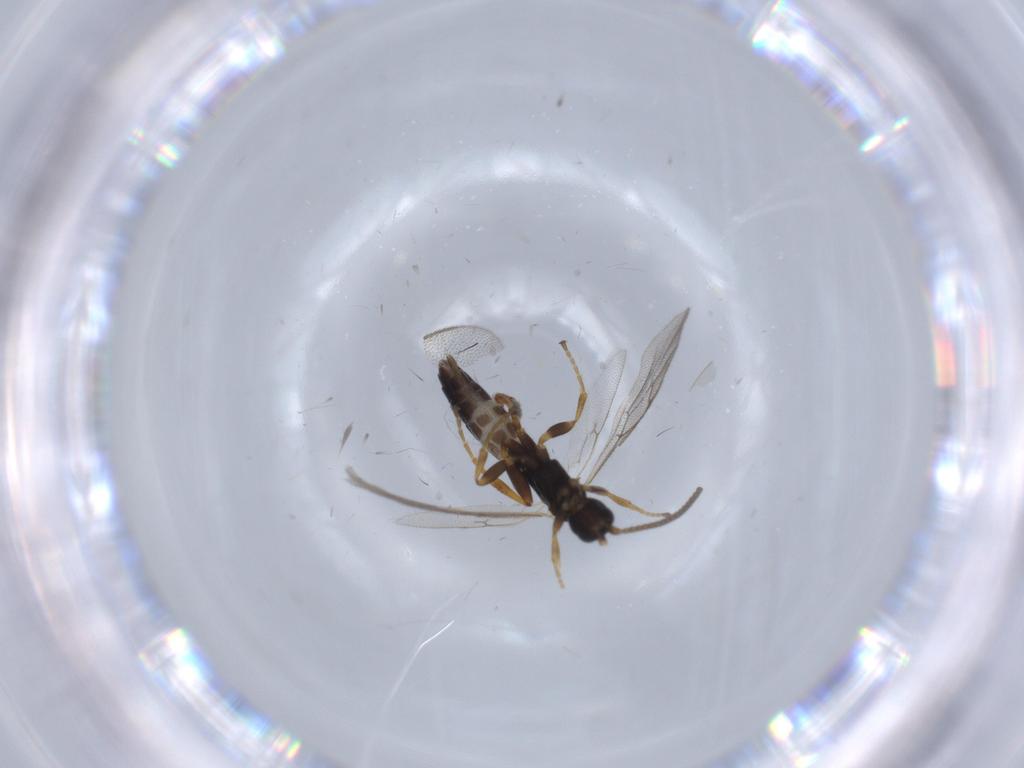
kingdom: Animalia
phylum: Arthropoda
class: Insecta
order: Hymenoptera
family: Ichneumonidae
